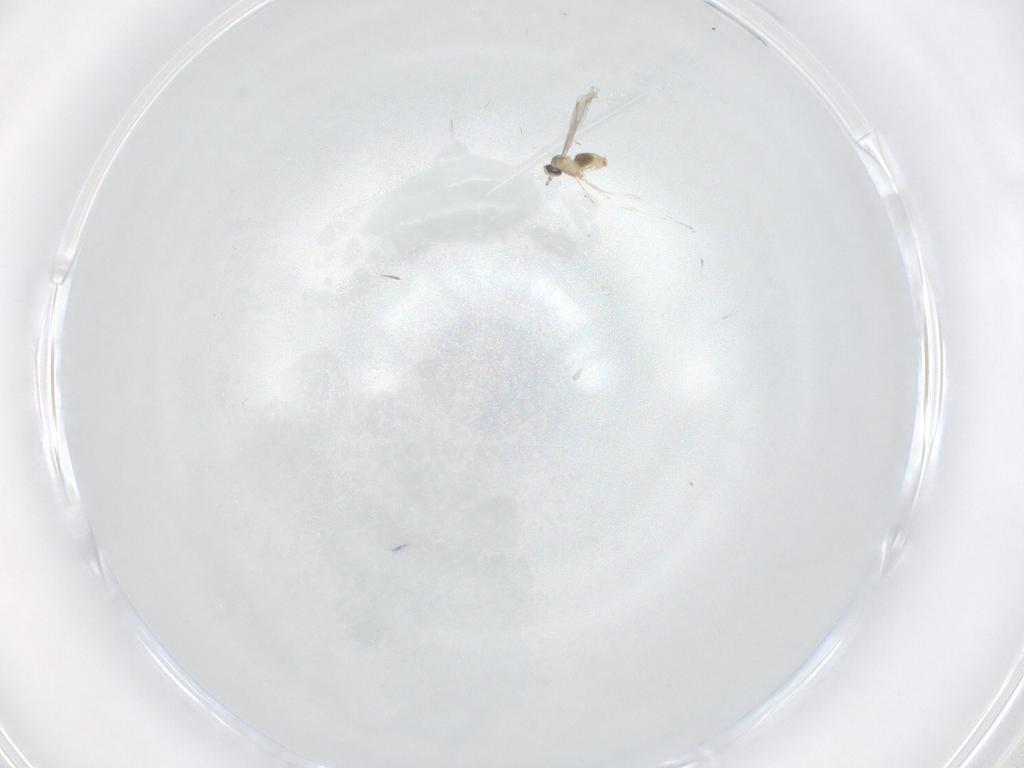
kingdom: Animalia
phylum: Arthropoda
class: Insecta
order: Diptera
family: Cecidomyiidae
